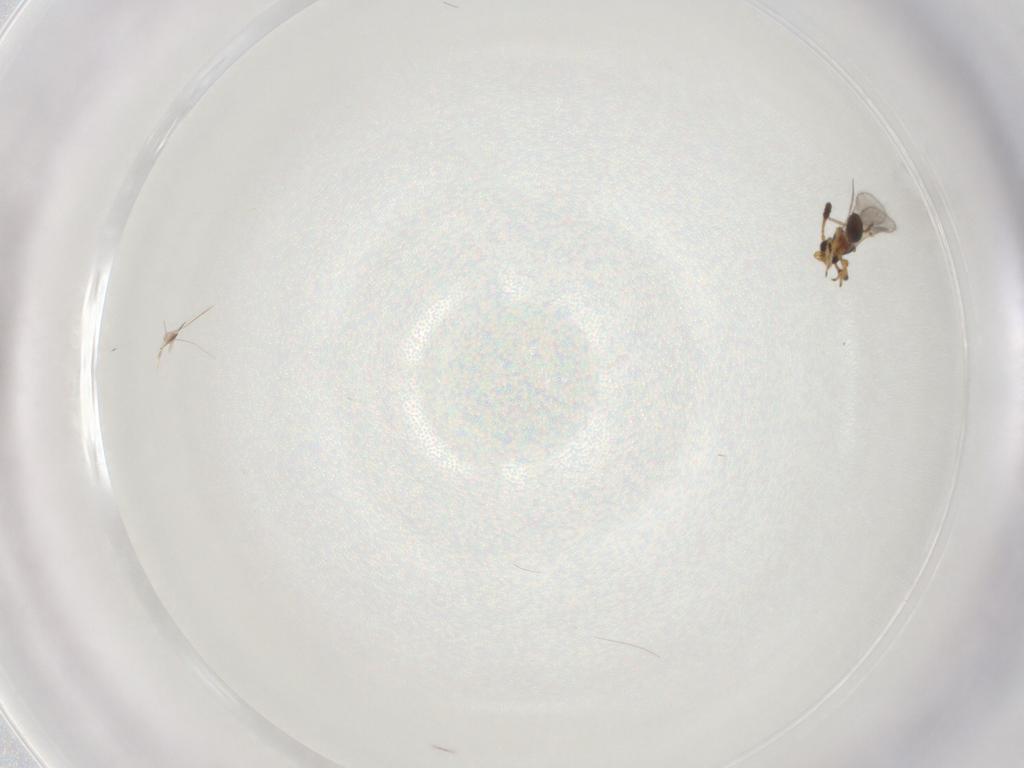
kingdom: Animalia
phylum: Arthropoda
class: Insecta
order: Hymenoptera
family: Diapriidae
